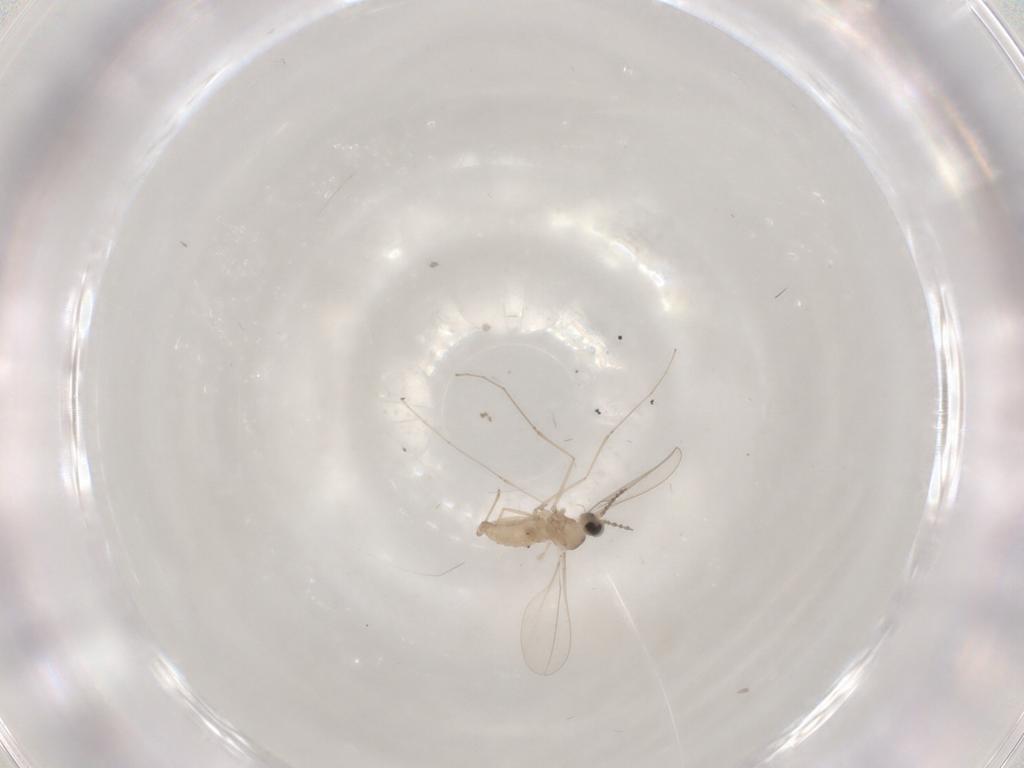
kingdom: Animalia
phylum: Arthropoda
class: Insecta
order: Diptera
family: Cecidomyiidae
